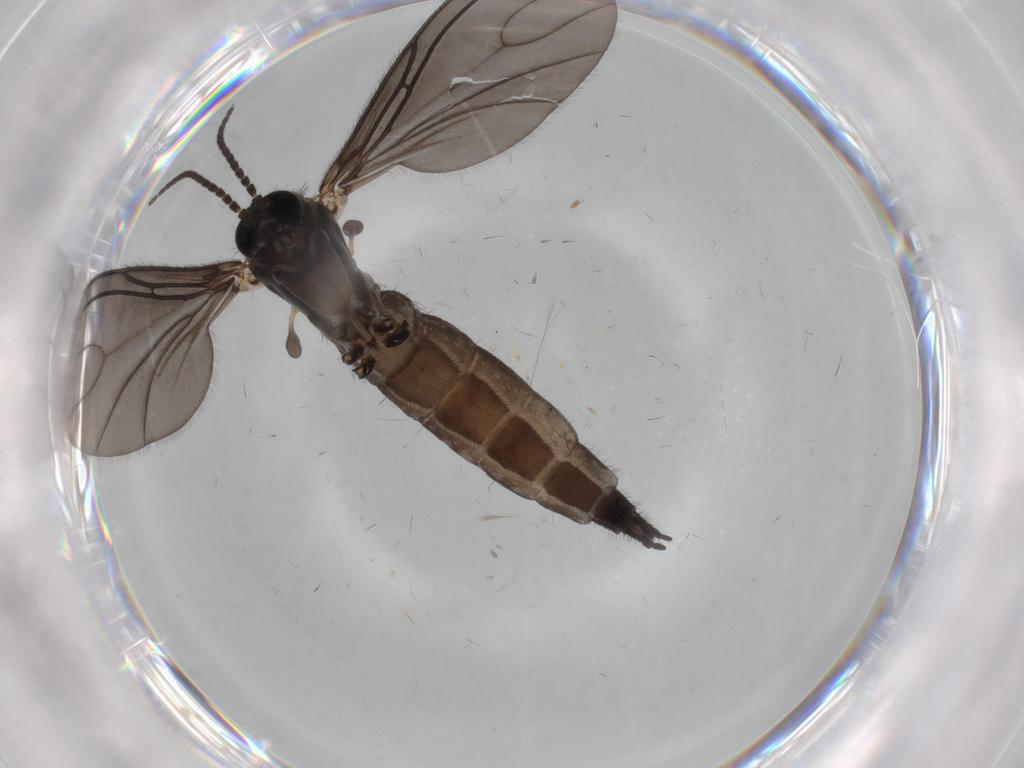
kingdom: Animalia
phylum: Arthropoda
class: Insecta
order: Diptera
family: Sciaridae
